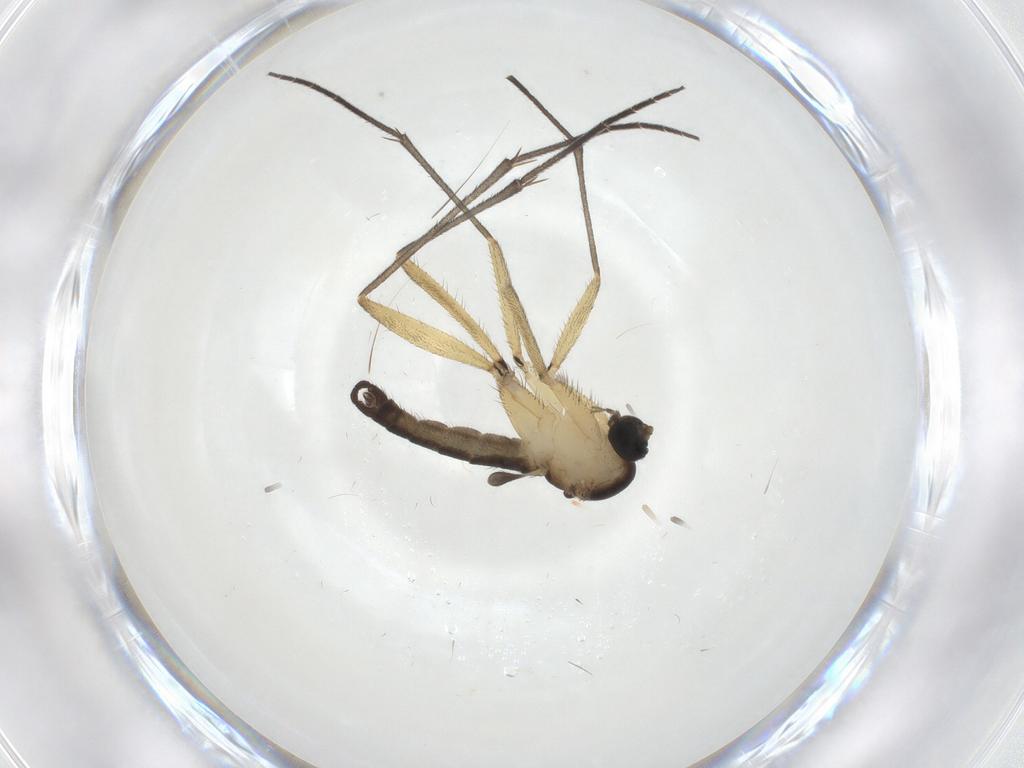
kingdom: Animalia
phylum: Arthropoda
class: Insecta
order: Diptera
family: Sciaridae
